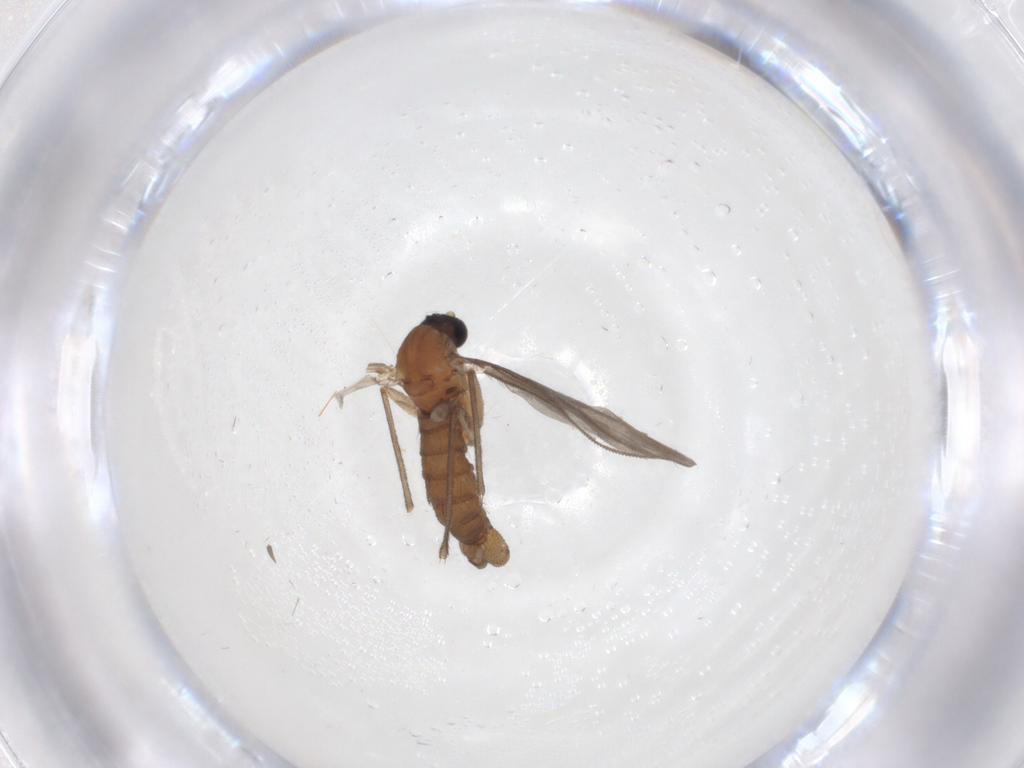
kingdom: Animalia
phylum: Arthropoda
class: Insecta
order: Diptera
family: Sciaridae
